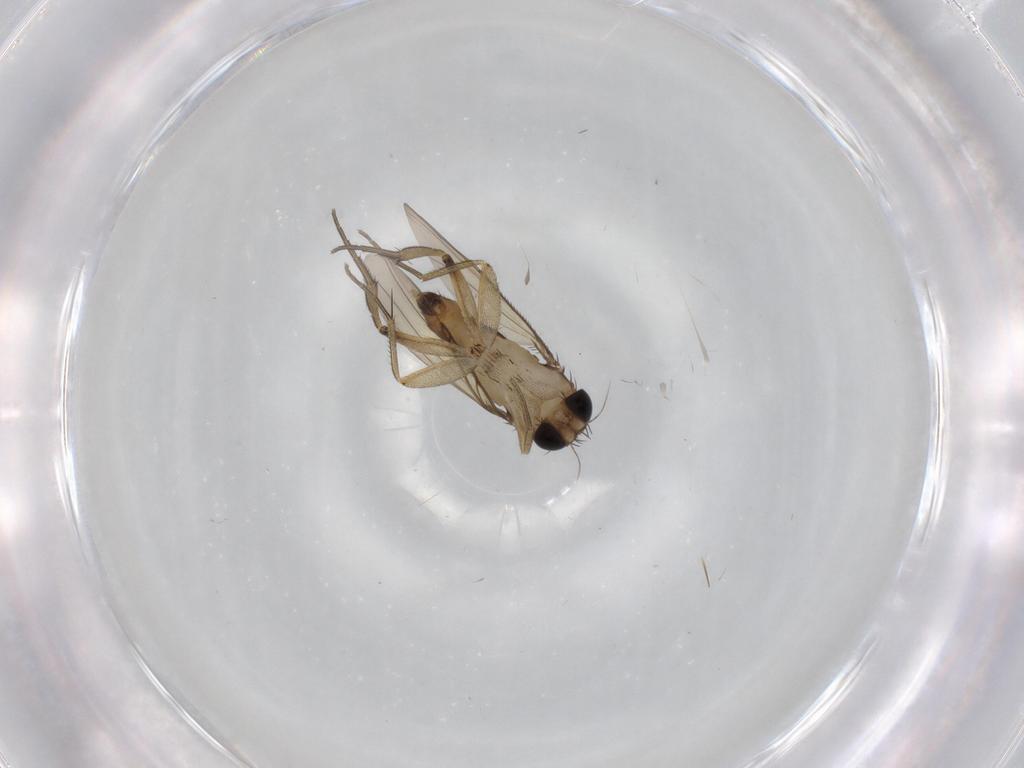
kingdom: Animalia
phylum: Arthropoda
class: Insecta
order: Diptera
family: Phoridae
